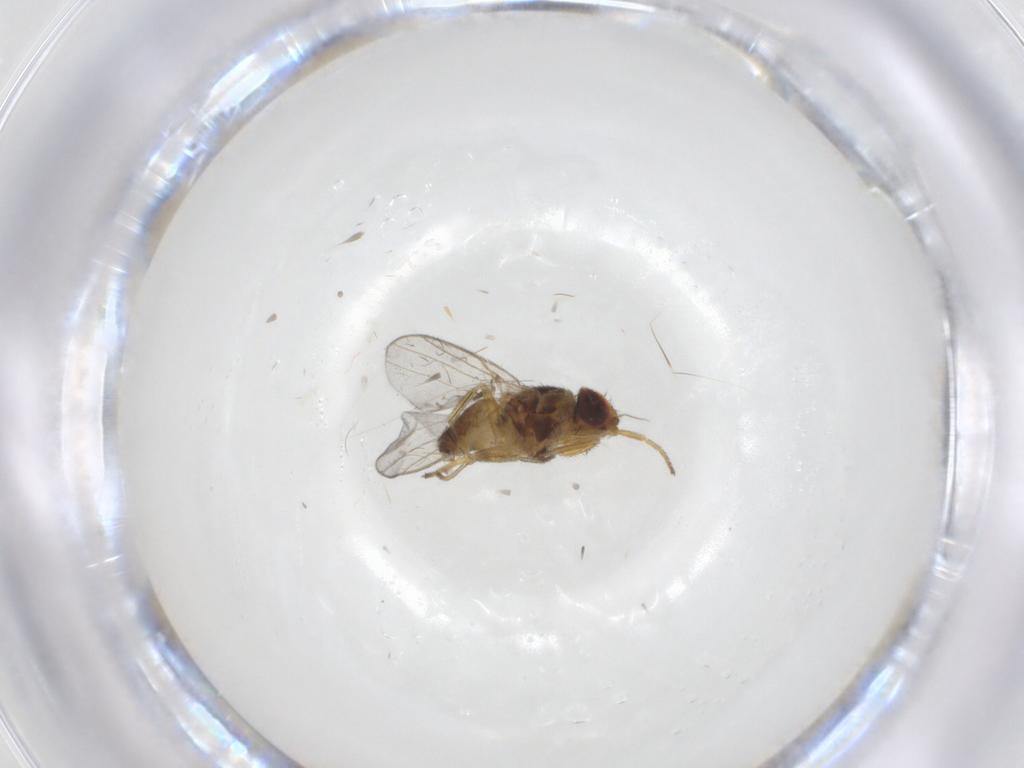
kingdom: Animalia
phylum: Arthropoda
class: Insecta
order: Diptera
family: Chloropidae
